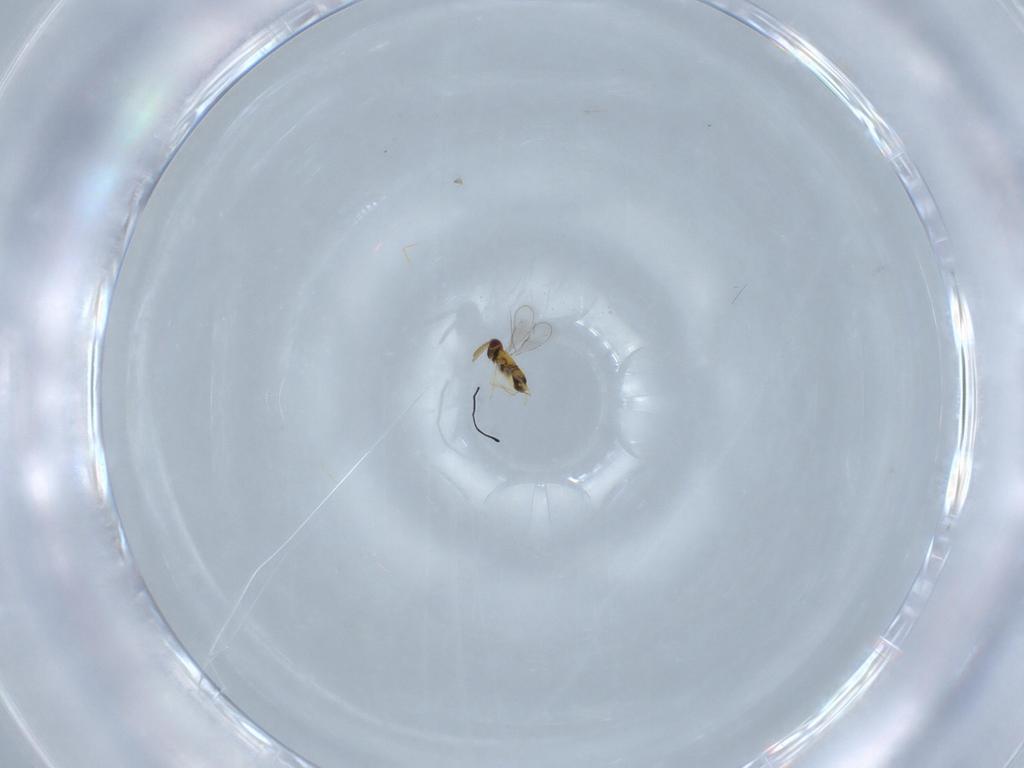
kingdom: Animalia
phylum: Arthropoda
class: Insecta
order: Hymenoptera
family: Aphelinidae
